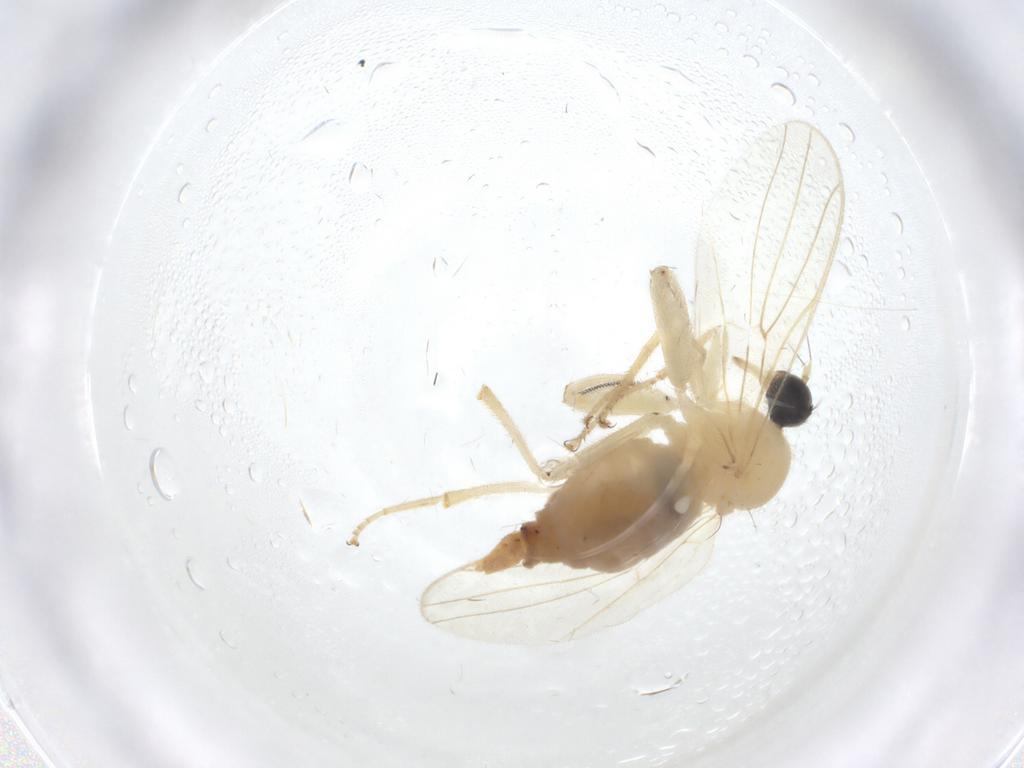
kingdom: Animalia
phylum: Arthropoda
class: Insecta
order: Diptera
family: Hybotidae
